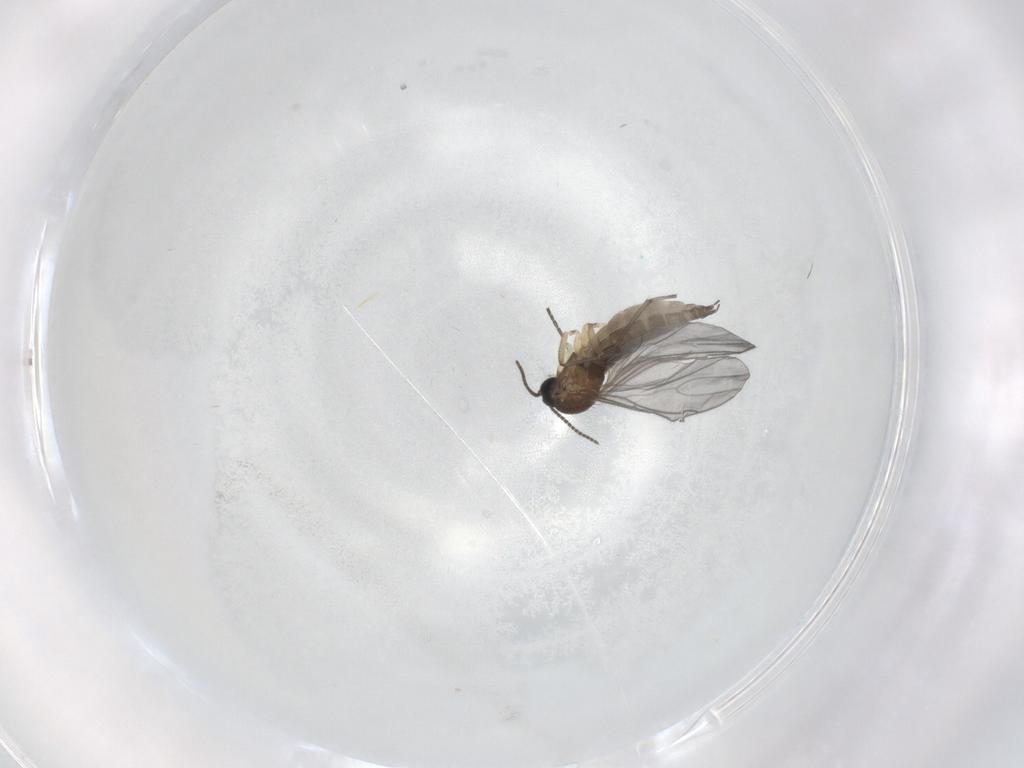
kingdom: Animalia
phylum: Arthropoda
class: Insecta
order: Diptera
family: Sciaridae
